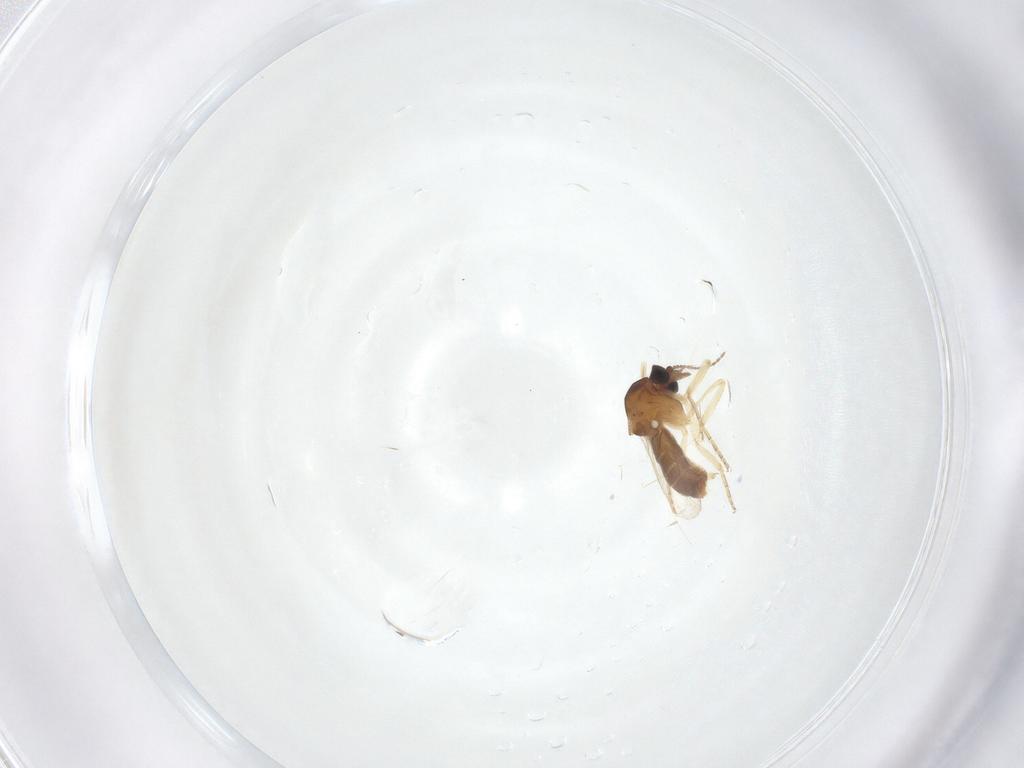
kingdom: Animalia
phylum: Arthropoda
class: Insecta
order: Diptera
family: Ceratopogonidae
